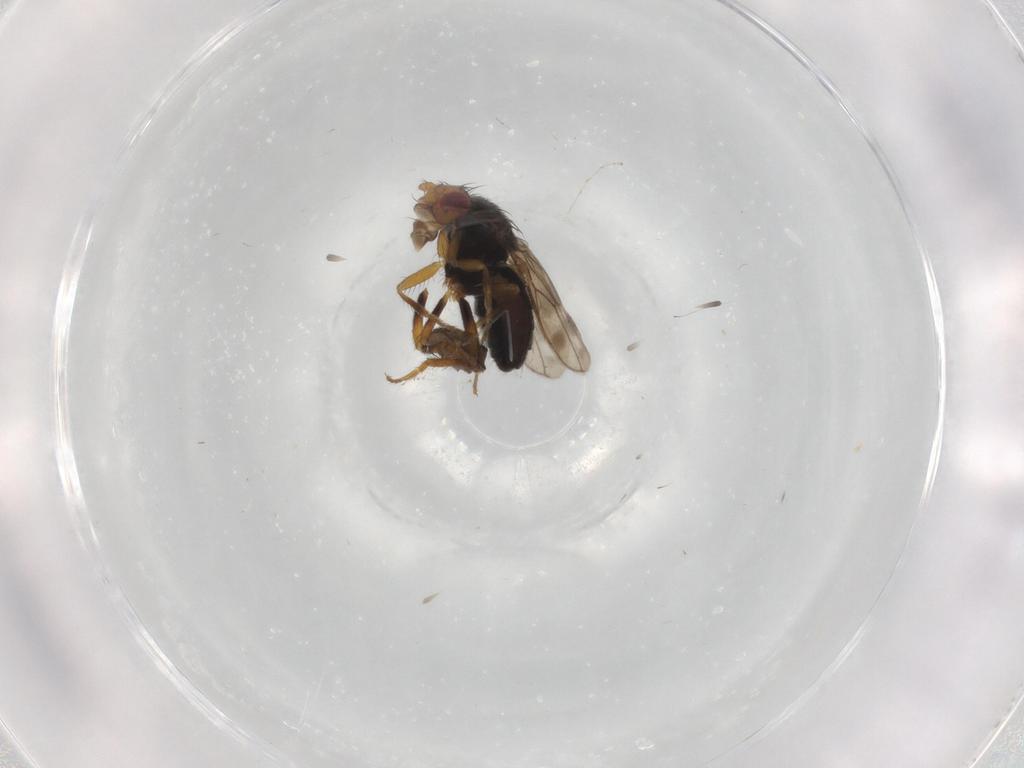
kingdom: Animalia
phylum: Arthropoda
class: Insecta
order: Diptera
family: Sphaeroceridae
